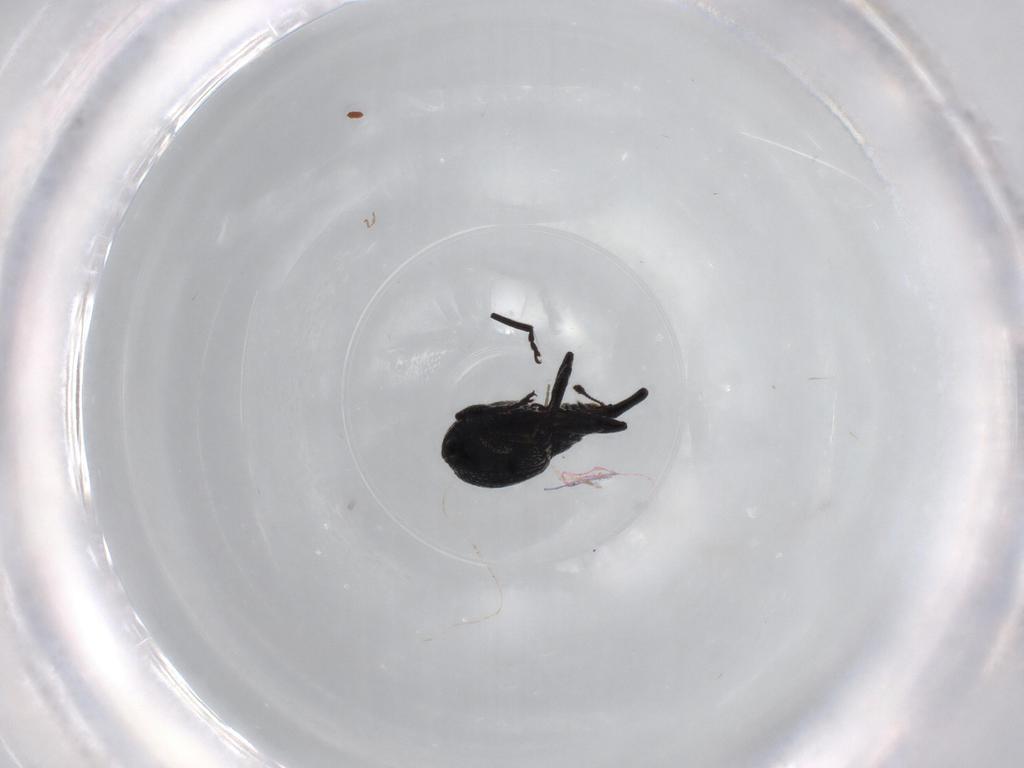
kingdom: Animalia
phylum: Arthropoda
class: Insecta
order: Coleoptera
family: Brentidae
